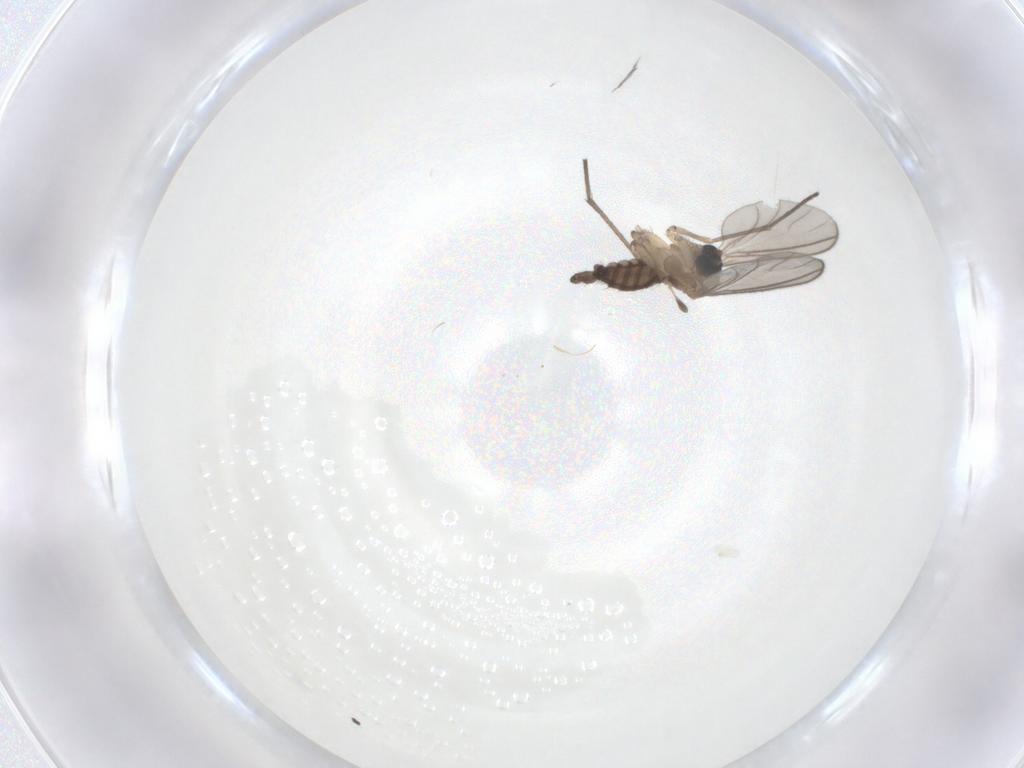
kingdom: Animalia
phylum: Arthropoda
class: Insecta
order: Diptera
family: Sciaridae
